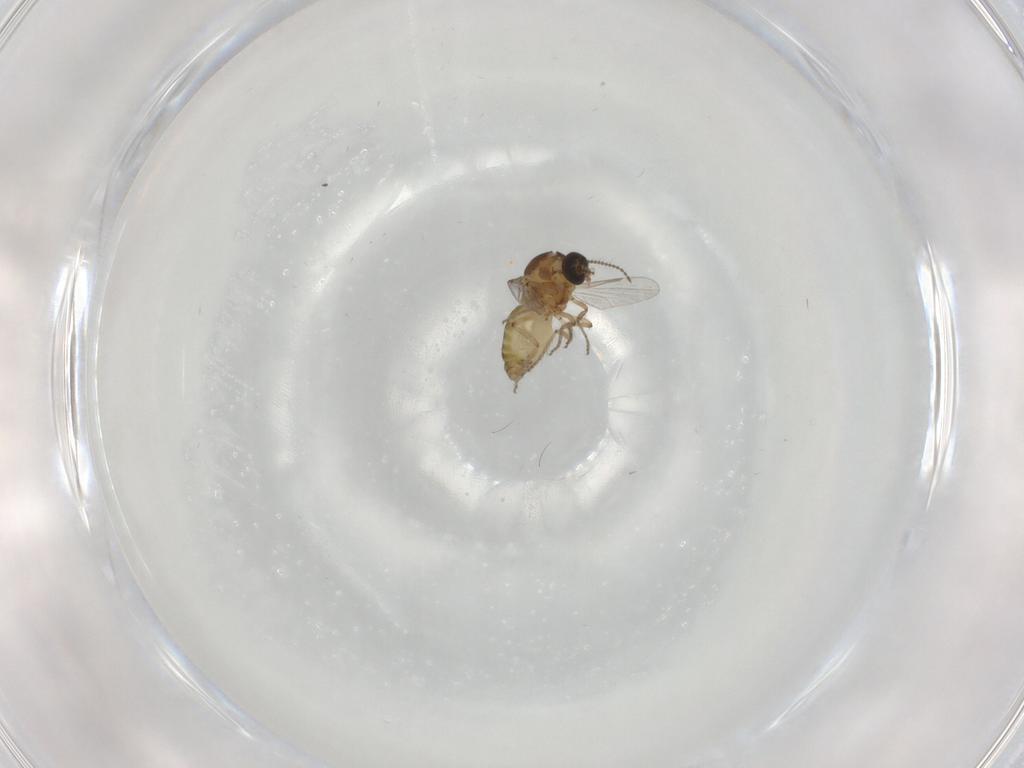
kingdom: Animalia
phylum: Arthropoda
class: Insecta
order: Diptera
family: Ceratopogonidae
